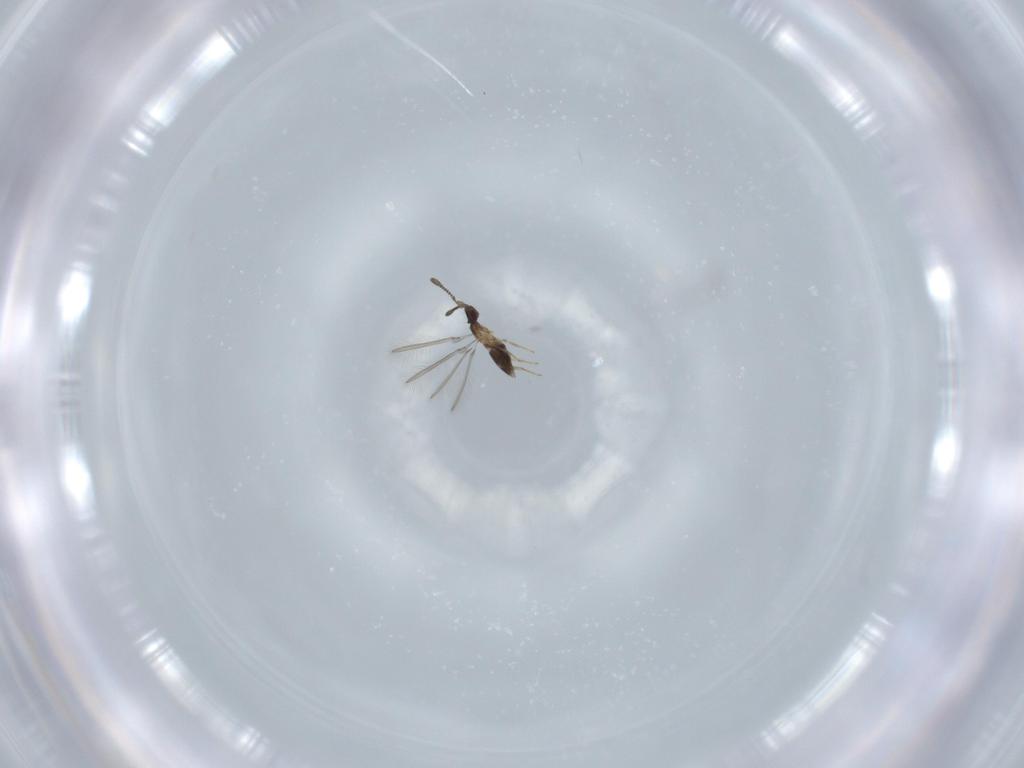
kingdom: Animalia
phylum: Arthropoda
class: Insecta
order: Hymenoptera
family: Mymaridae
